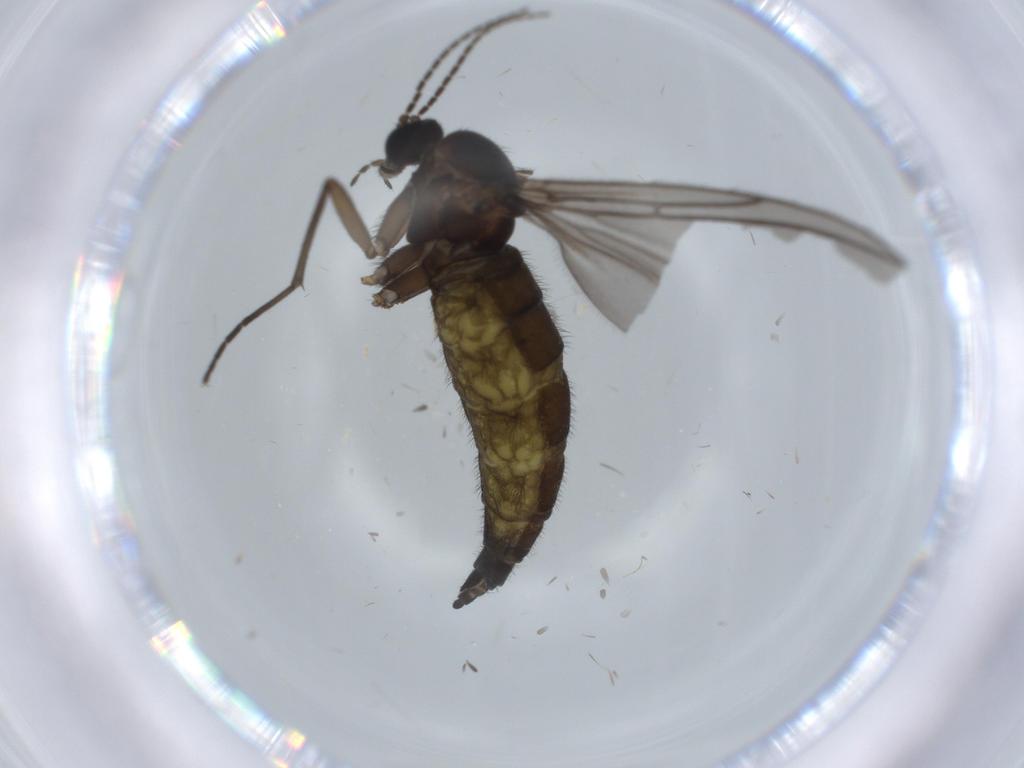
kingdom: Animalia
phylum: Arthropoda
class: Insecta
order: Diptera
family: Sciaridae
